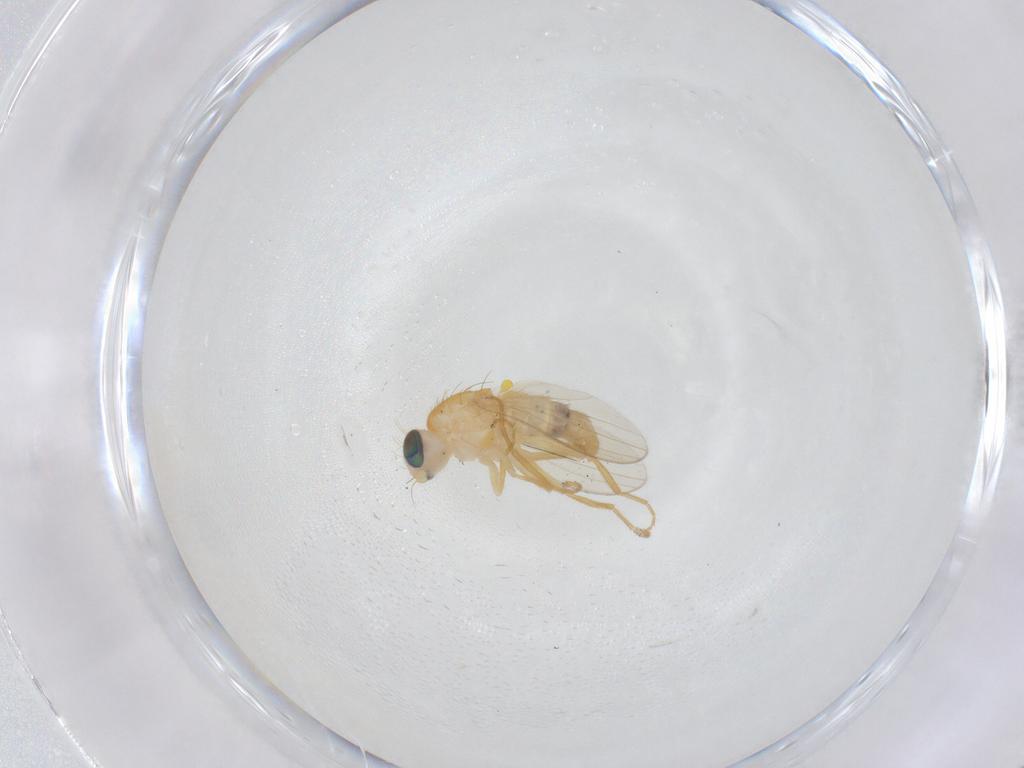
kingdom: Animalia
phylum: Arthropoda
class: Insecta
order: Diptera
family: Chyromyidae
